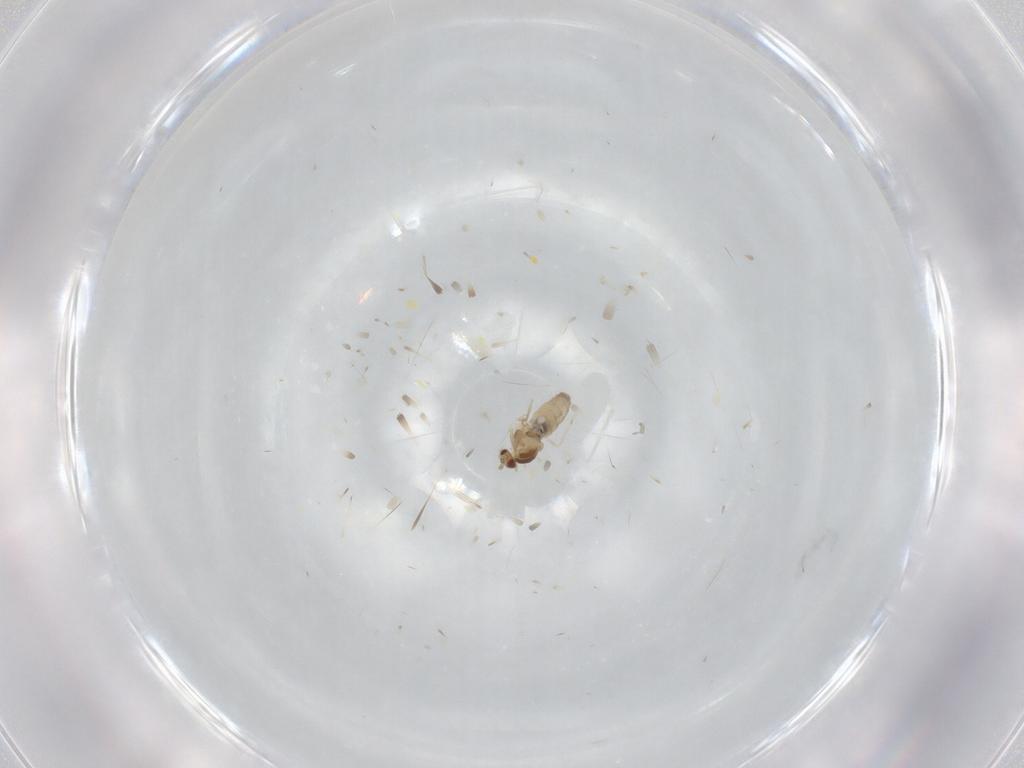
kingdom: Animalia
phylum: Arthropoda
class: Insecta
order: Diptera
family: Cecidomyiidae
